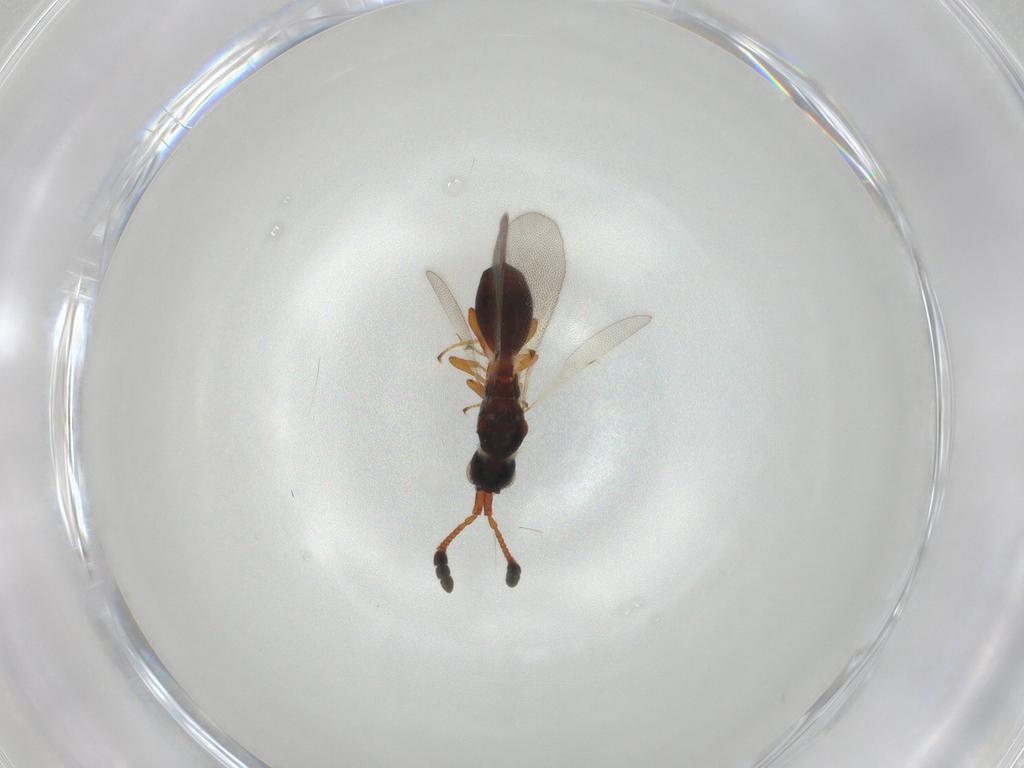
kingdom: Animalia
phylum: Arthropoda
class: Insecta
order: Hymenoptera
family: Diapriidae
